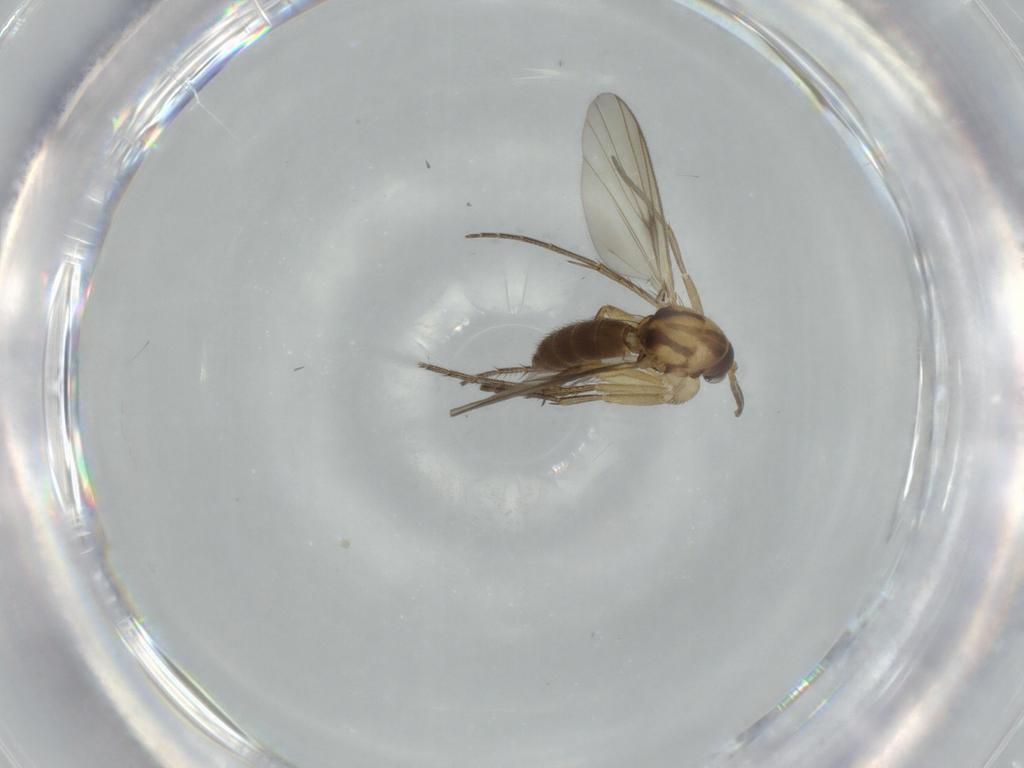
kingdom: Animalia
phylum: Arthropoda
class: Insecta
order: Diptera
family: Mycetophilidae
